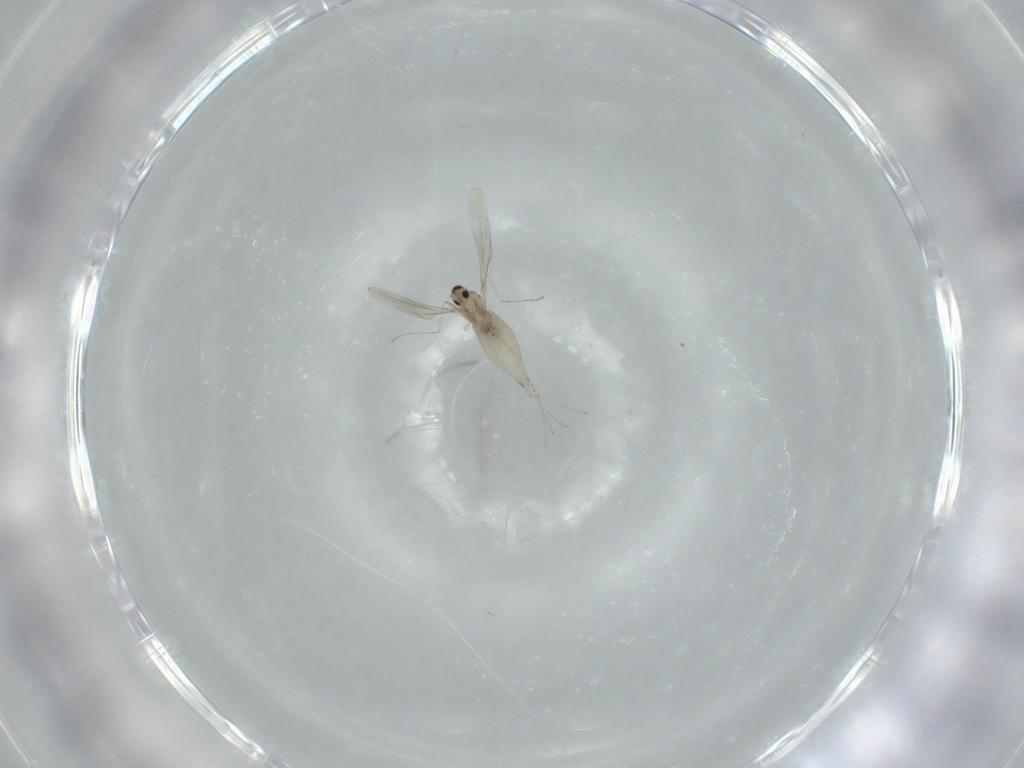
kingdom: Animalia
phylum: Arthropoda
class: Insecta
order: Diptera
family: Cecidomyiidae
